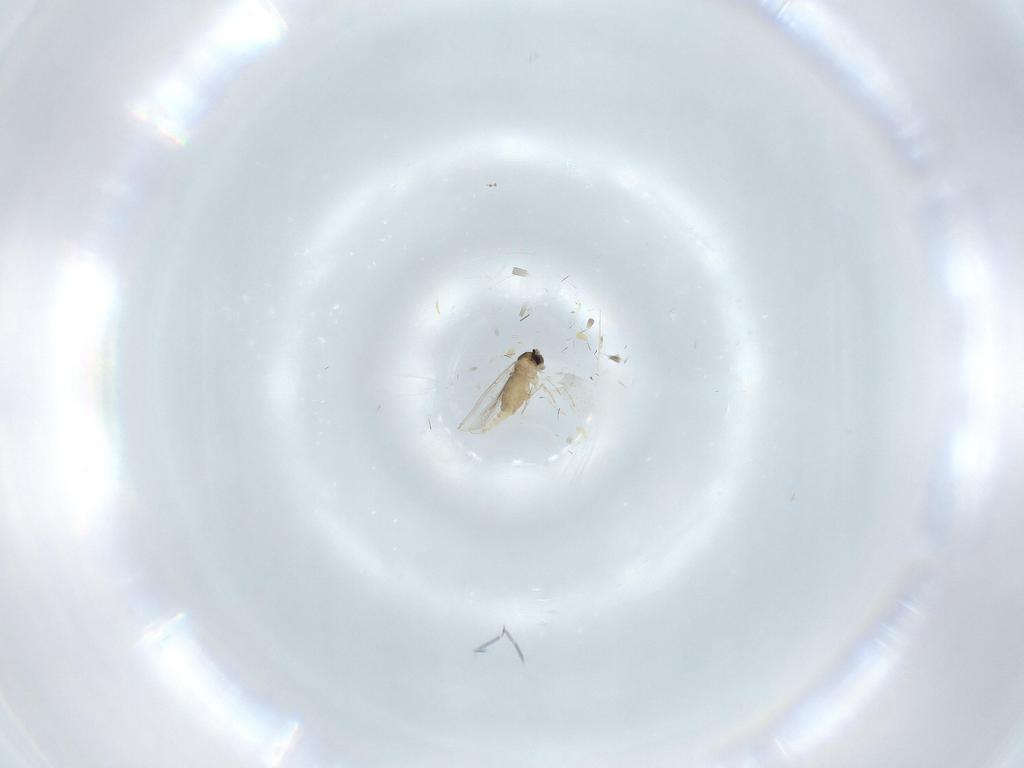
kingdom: Animalia
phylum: Arthropoda
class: Insecta
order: Diptera
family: Cecidomyiidae
